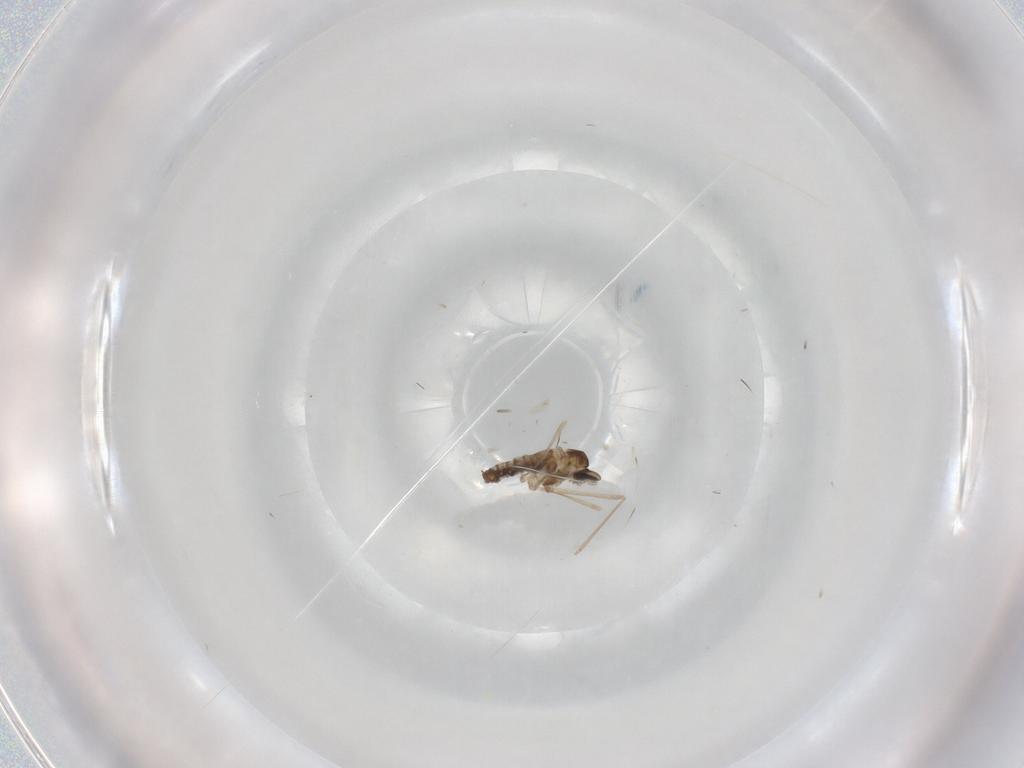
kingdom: Animalia
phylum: Arthropoda
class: Insecta
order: Diptera
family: Cecidomyiidae
